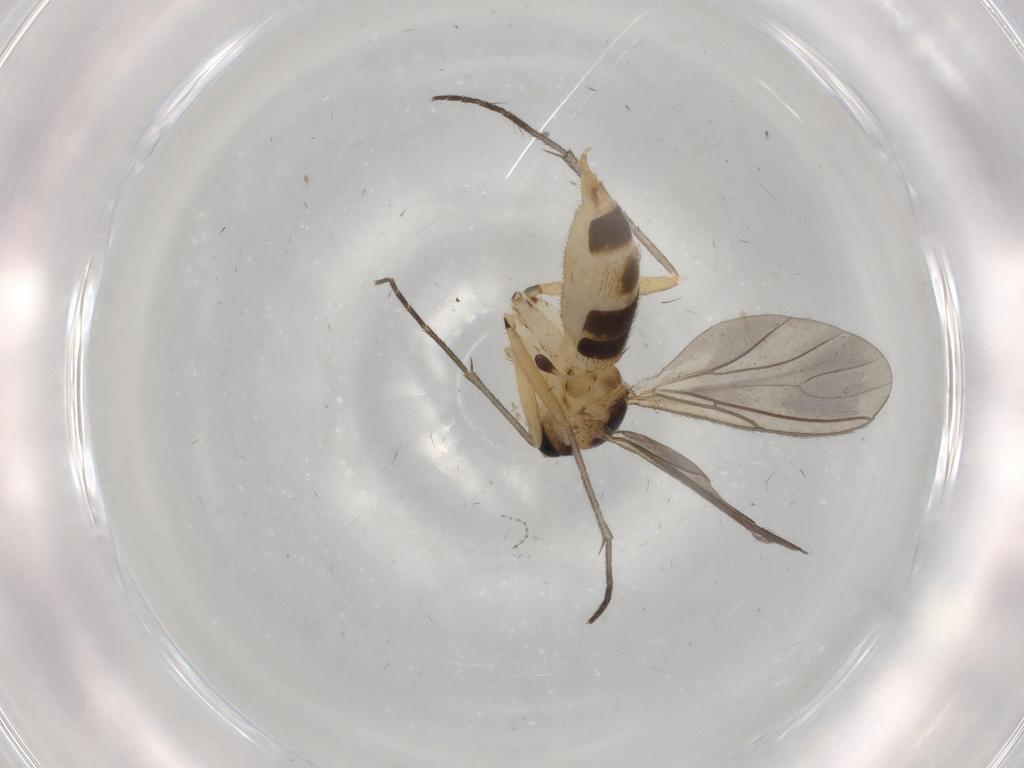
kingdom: Animalia
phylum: Arthropoda
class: Insecta
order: Diptera
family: Sciaridae
